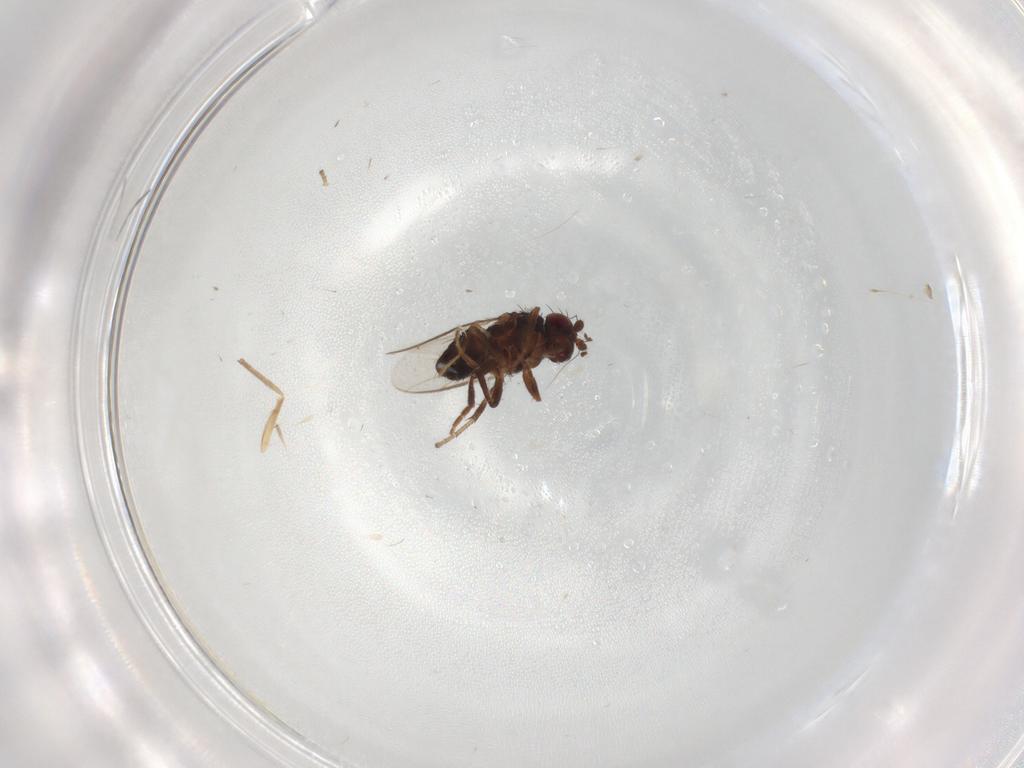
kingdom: Animalia
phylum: Arthropoda
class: Insecta
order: Diptera
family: Sphaeroceridae
